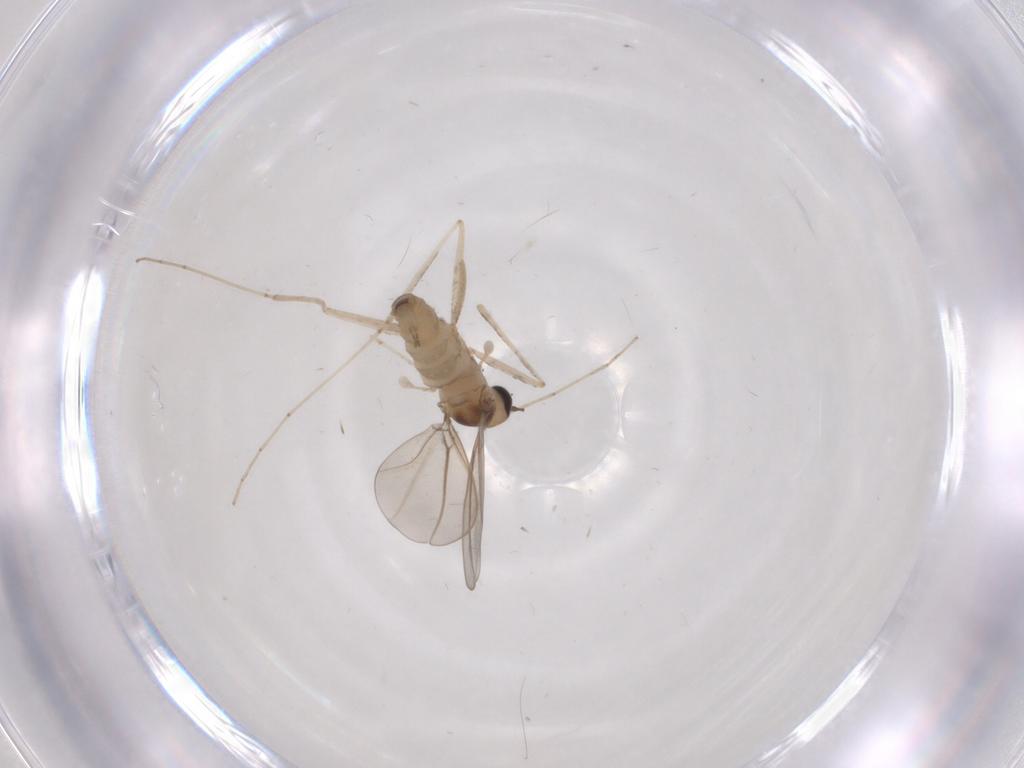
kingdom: Animalia
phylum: Arthropoda
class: Insecta
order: Diptera
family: Cecidomyiidae
